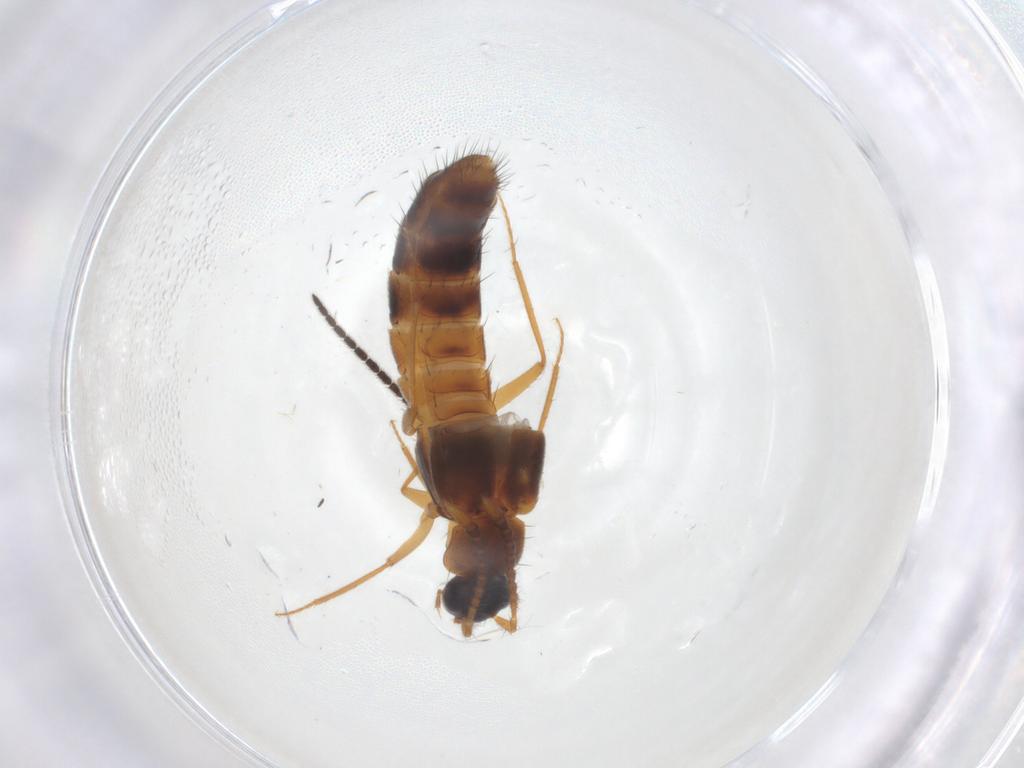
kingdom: Animalia
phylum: Arthropoda
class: Insecta
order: Coleoptera
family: Staphylinidae
